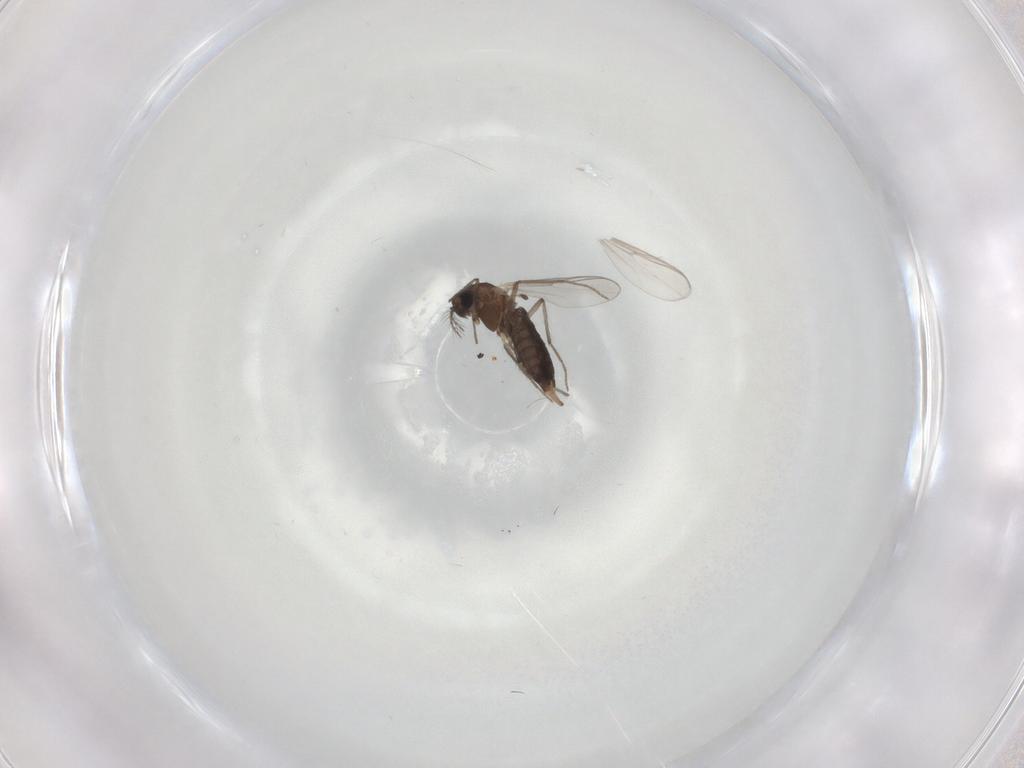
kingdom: Animalia
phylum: Arthropoda
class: Insecta
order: Diptera
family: Chironomidae
